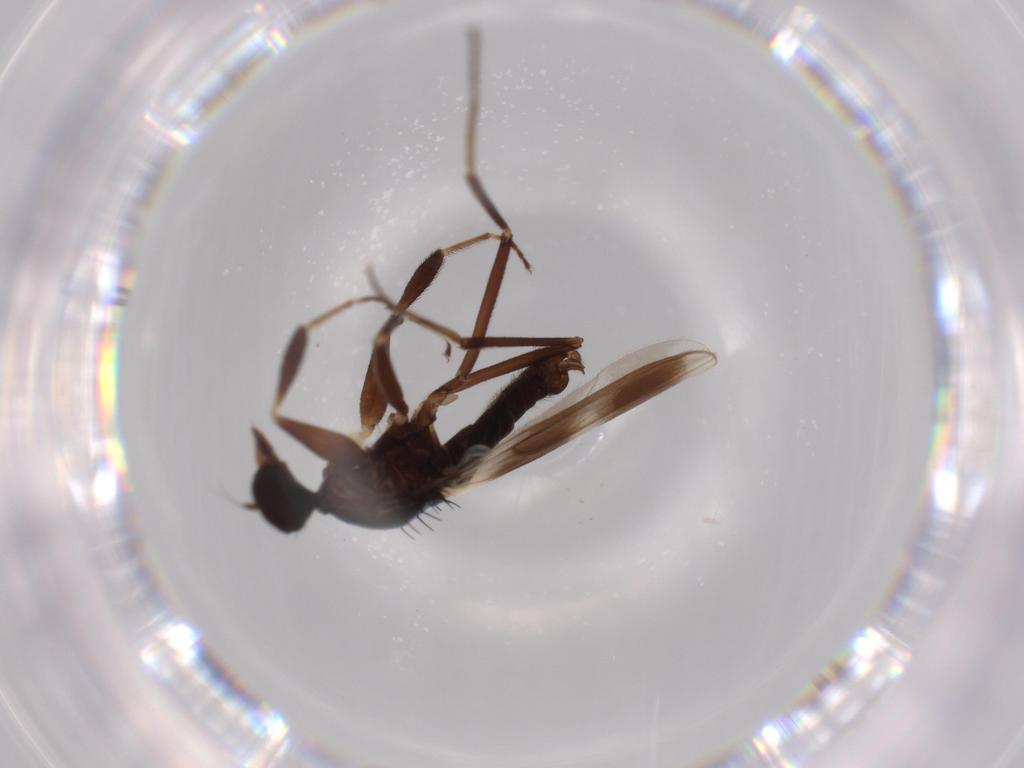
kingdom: Animalia
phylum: Arthropoda
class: Insecta
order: Diptera
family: Hybotidae
